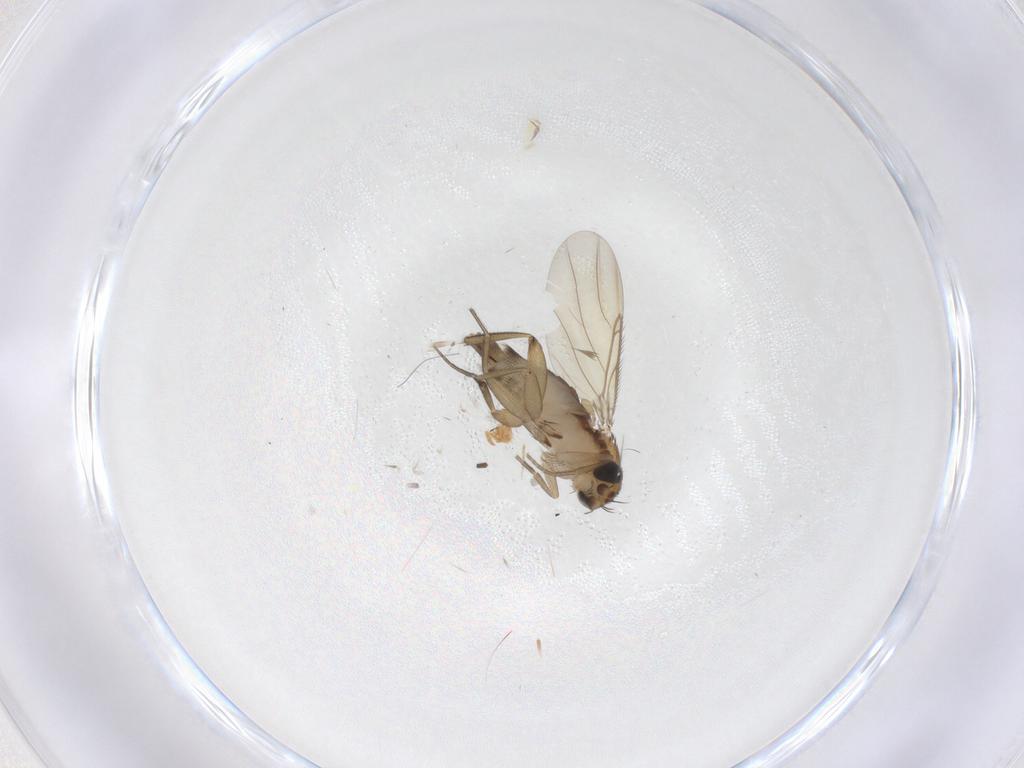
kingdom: Animalia
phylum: Arthropoda
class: Insecta
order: Diptera
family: Phoridae
